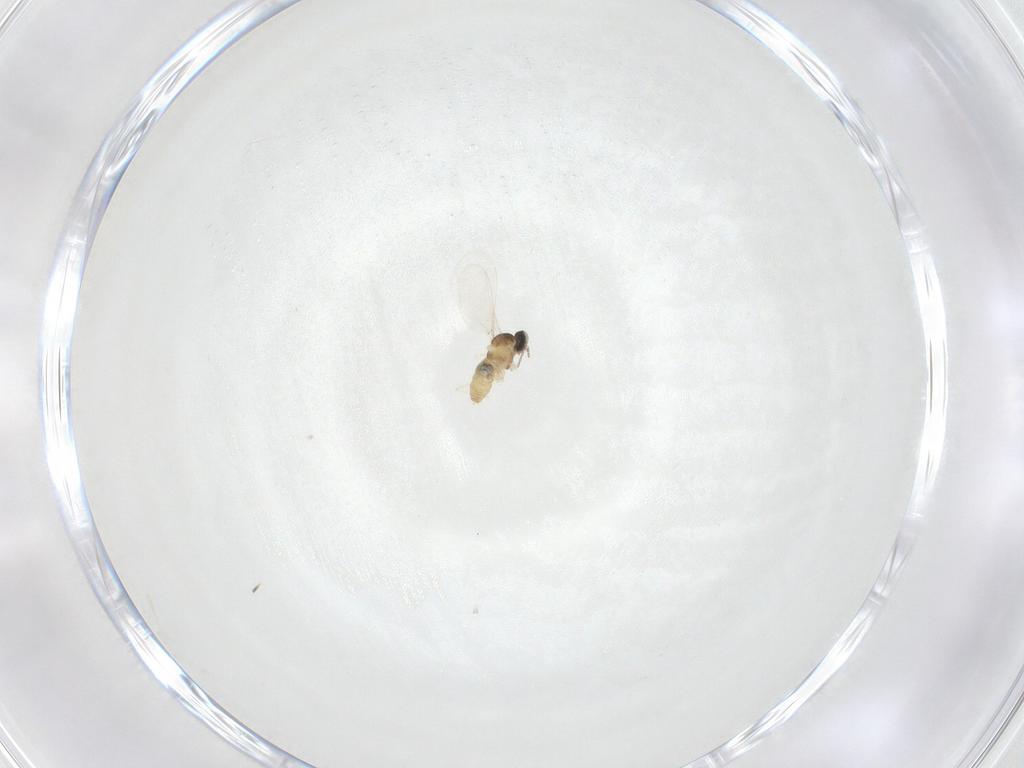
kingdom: Animalia
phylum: Arthropoda
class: Insecta
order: Diptera
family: Cecidomyiidae
